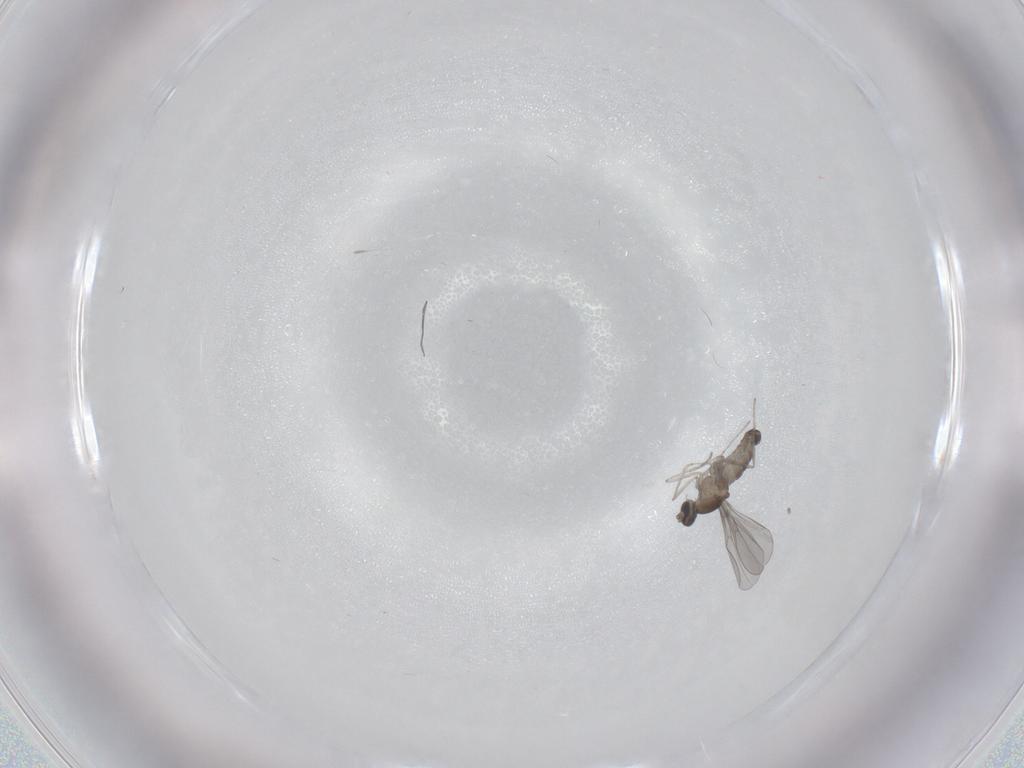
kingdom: Animalia
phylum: Arthropoda
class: Insecta
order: Diptera
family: Cecidomyiidae
